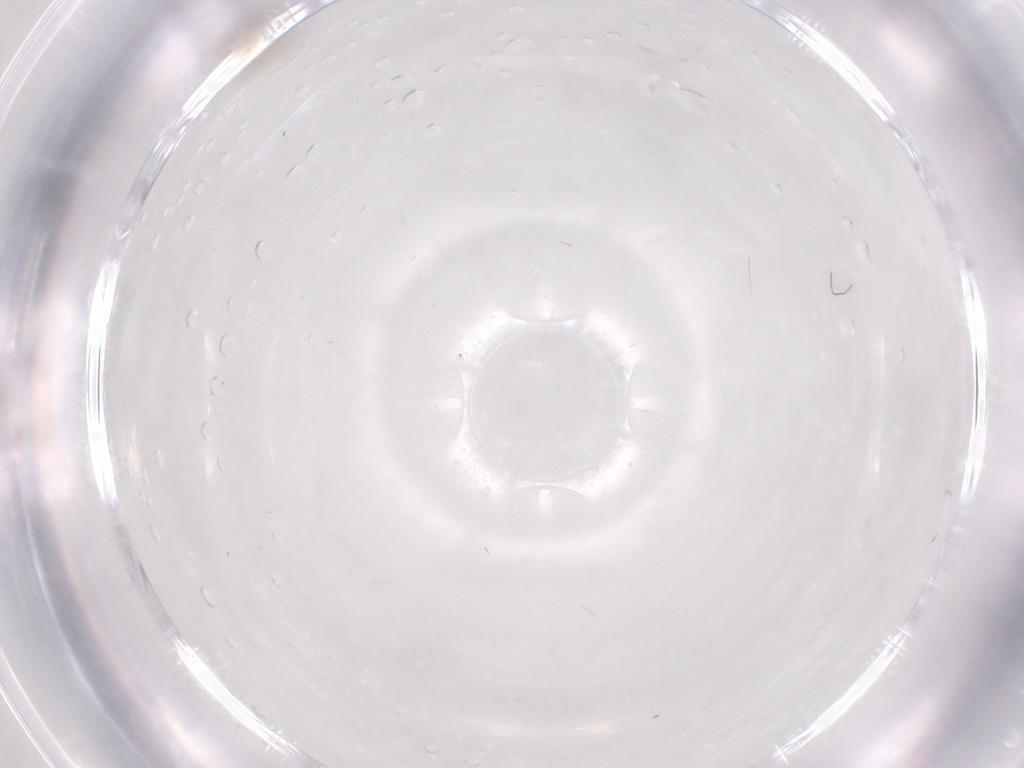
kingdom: Animalia
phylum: Arthropoda
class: Insecta
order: Diptera
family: Cecidomyiidae
